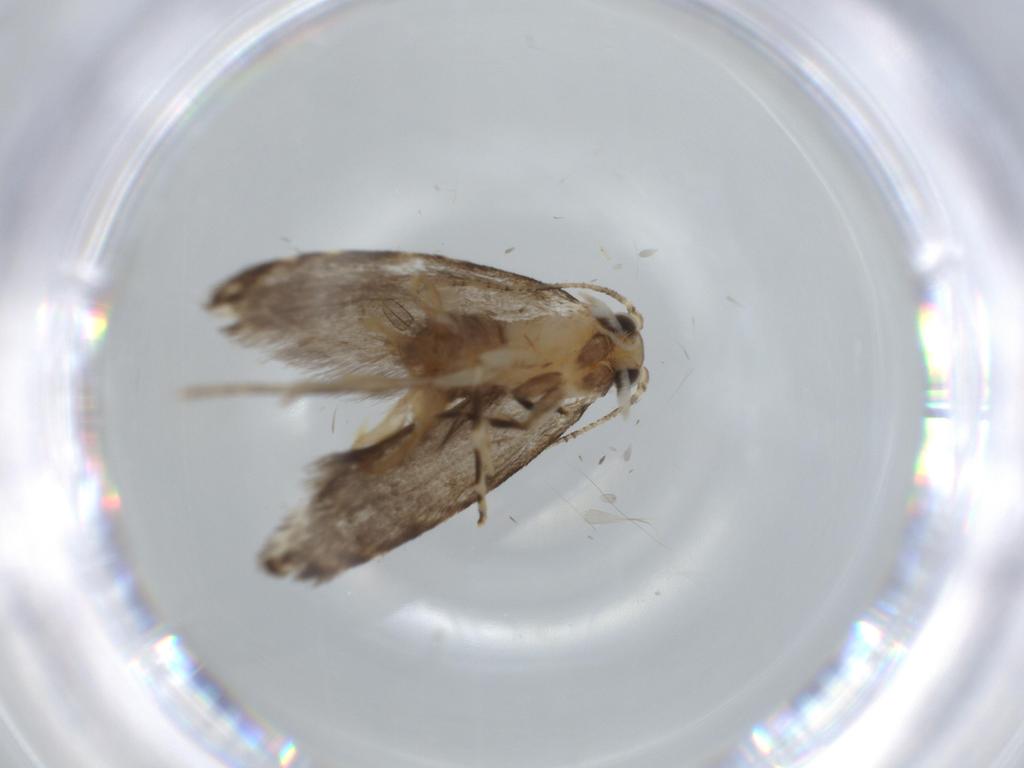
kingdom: Animalia
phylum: Arthropoda
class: Insecta
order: Lepidoptera
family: Tineidae
